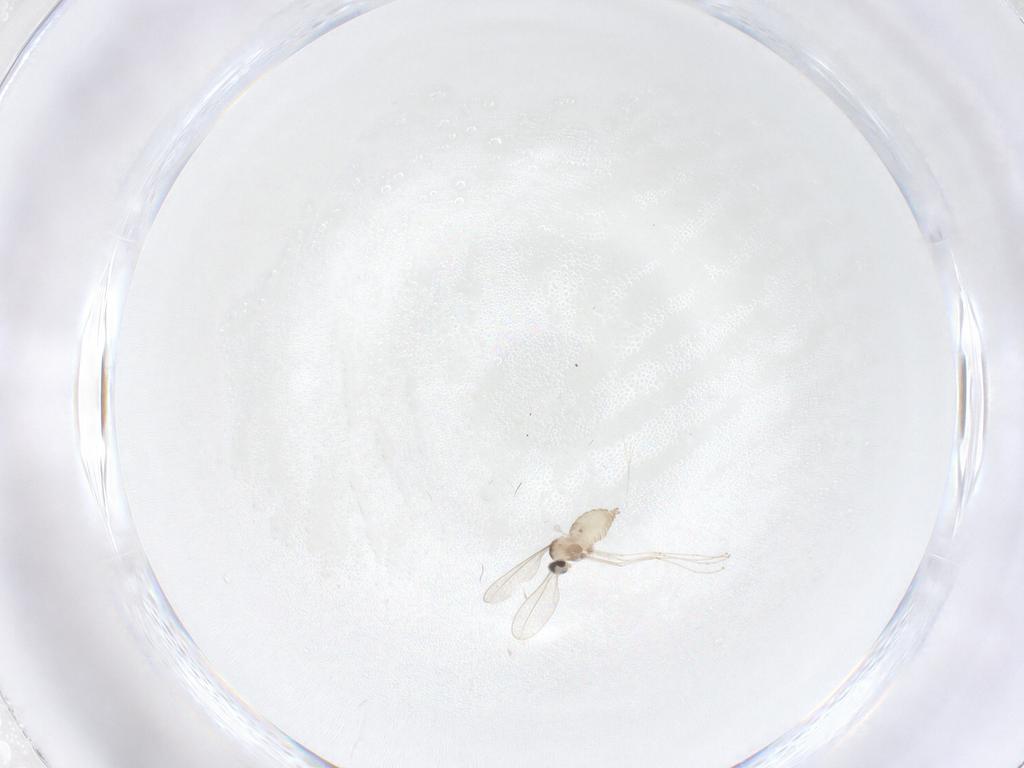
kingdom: Animalia
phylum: Arthropoda
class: Insecta
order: Diptera
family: Cecidomyiidae
